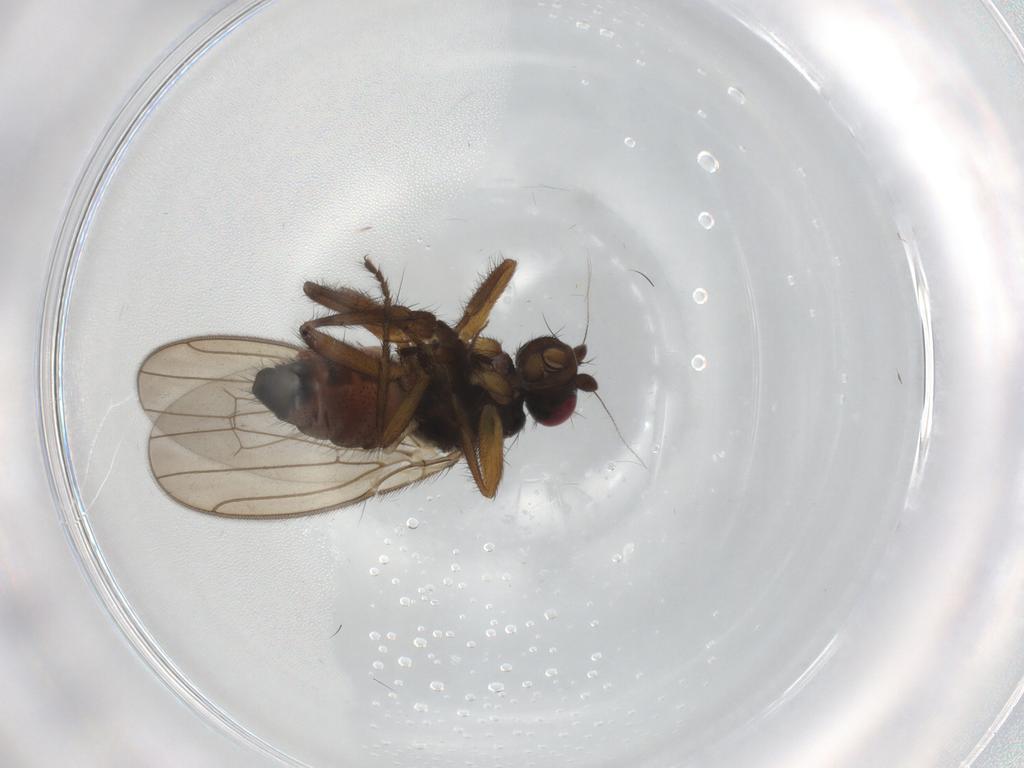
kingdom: Animalia
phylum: Arthropoda
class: Insecta
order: Diptera
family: Sphaeroceridae
